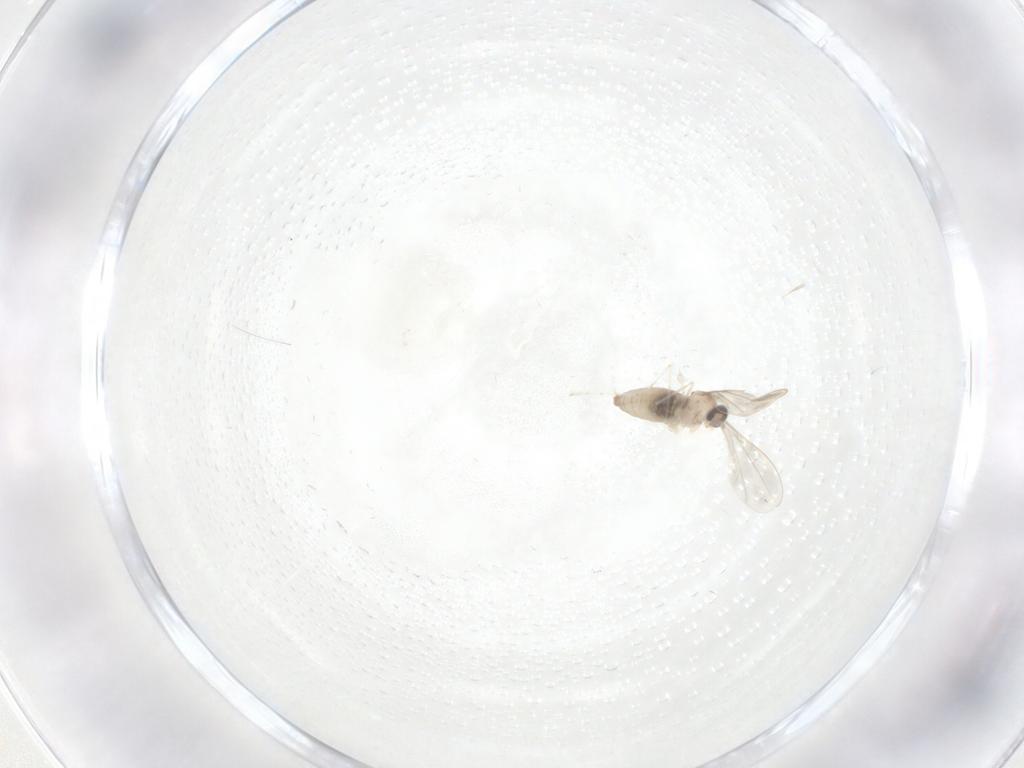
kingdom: Animalia
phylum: Arthropoda
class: Insecta
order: Diptera
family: Cecidomyiidae
